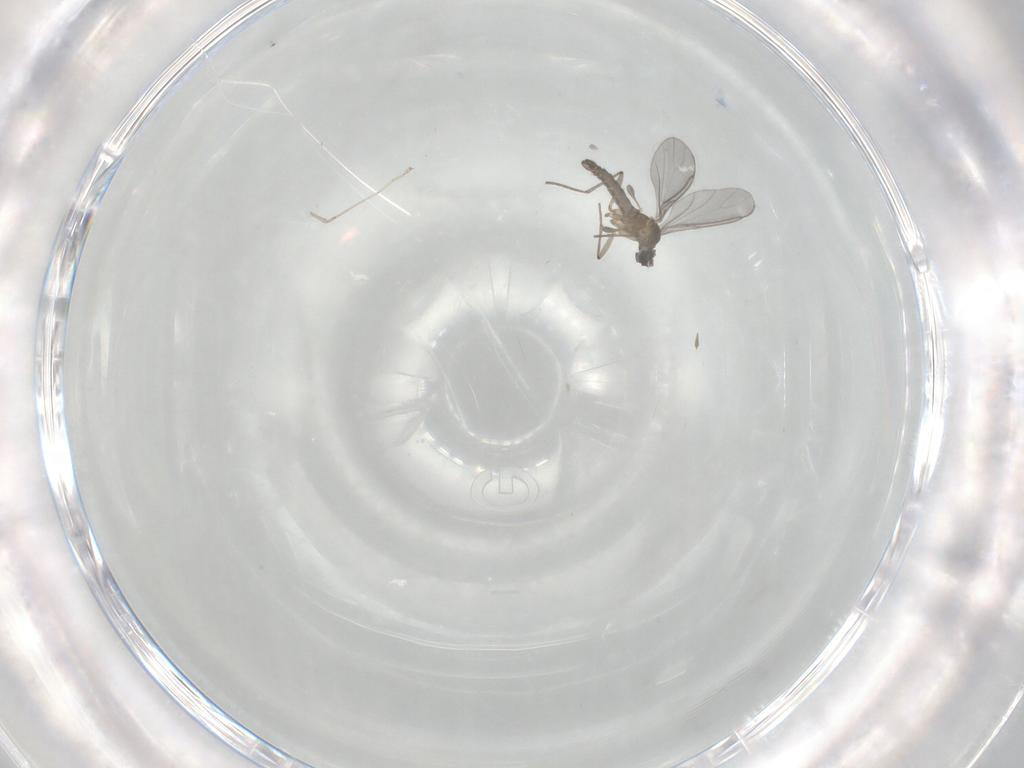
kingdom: Animalia
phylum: Arthropoda
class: Insecta
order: Diptera
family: Sciaridae
